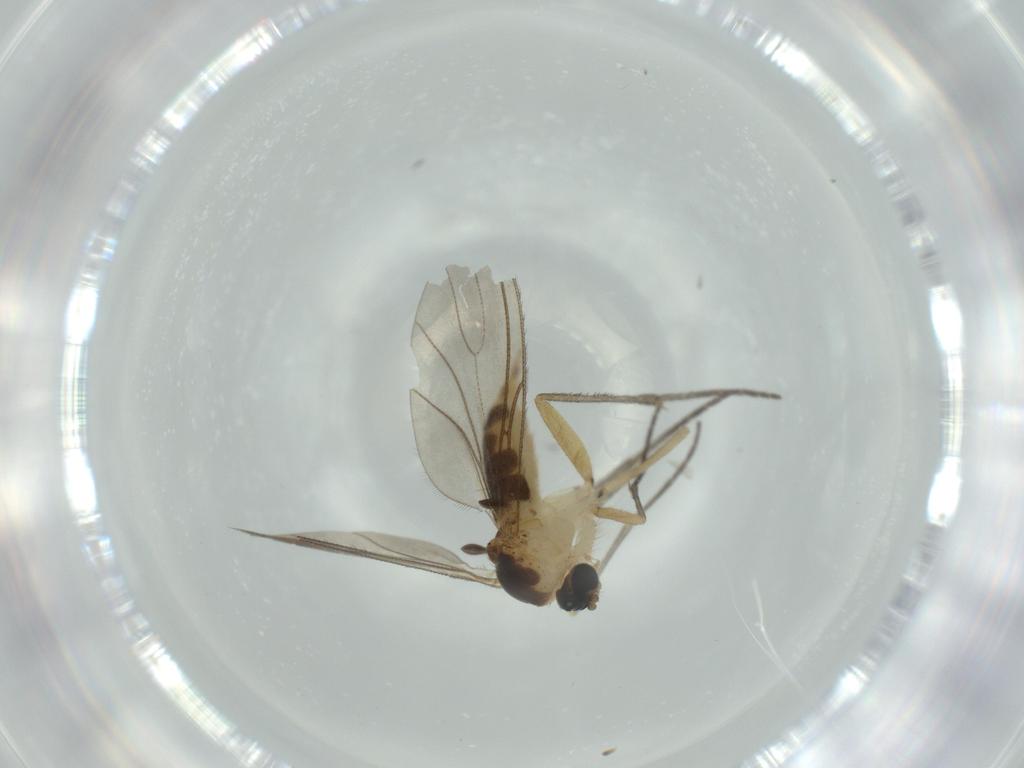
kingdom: Animalia
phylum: Arthropoda
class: Insecta
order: Diptera
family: Sciaridae
